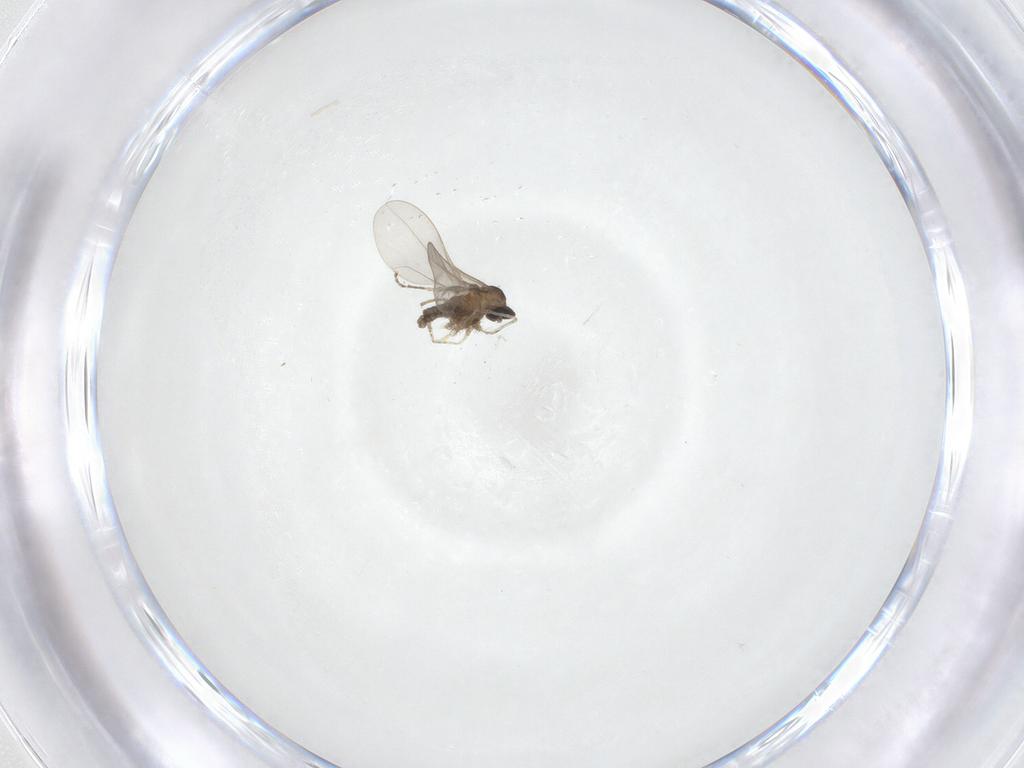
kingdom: Animalia
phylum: Arthropoda
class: Insecta
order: Diptera
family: Cecidomyiidae
